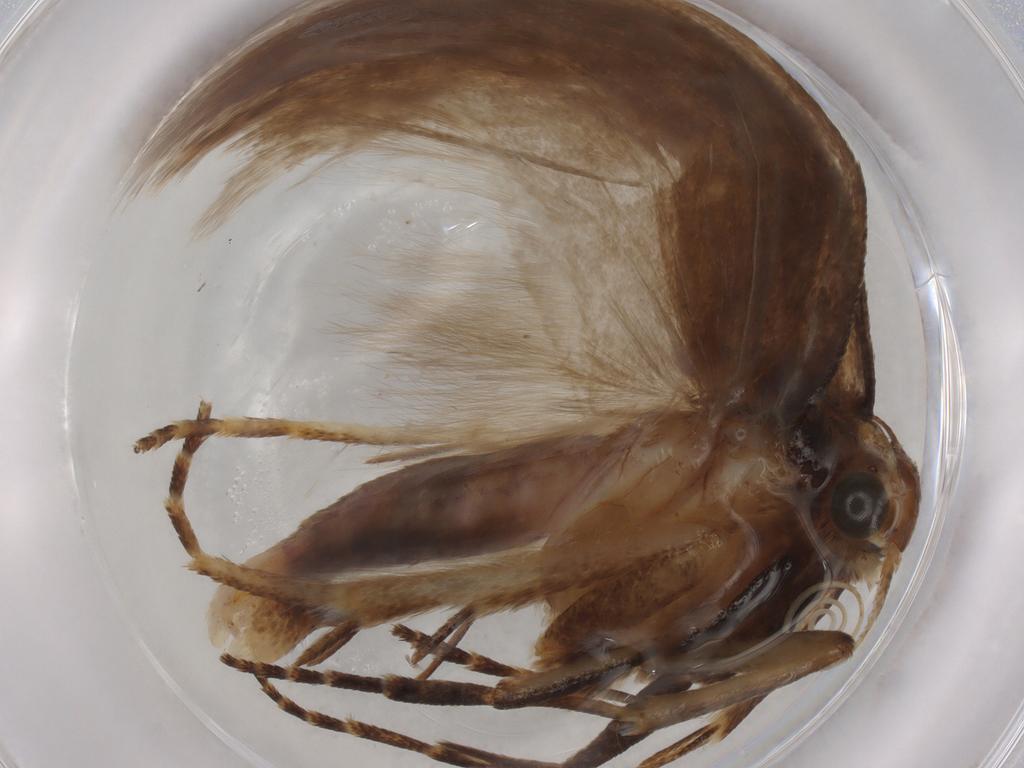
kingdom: Animalia
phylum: Arthropoda
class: Insecta
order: Lepidoptera
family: Erebidae
